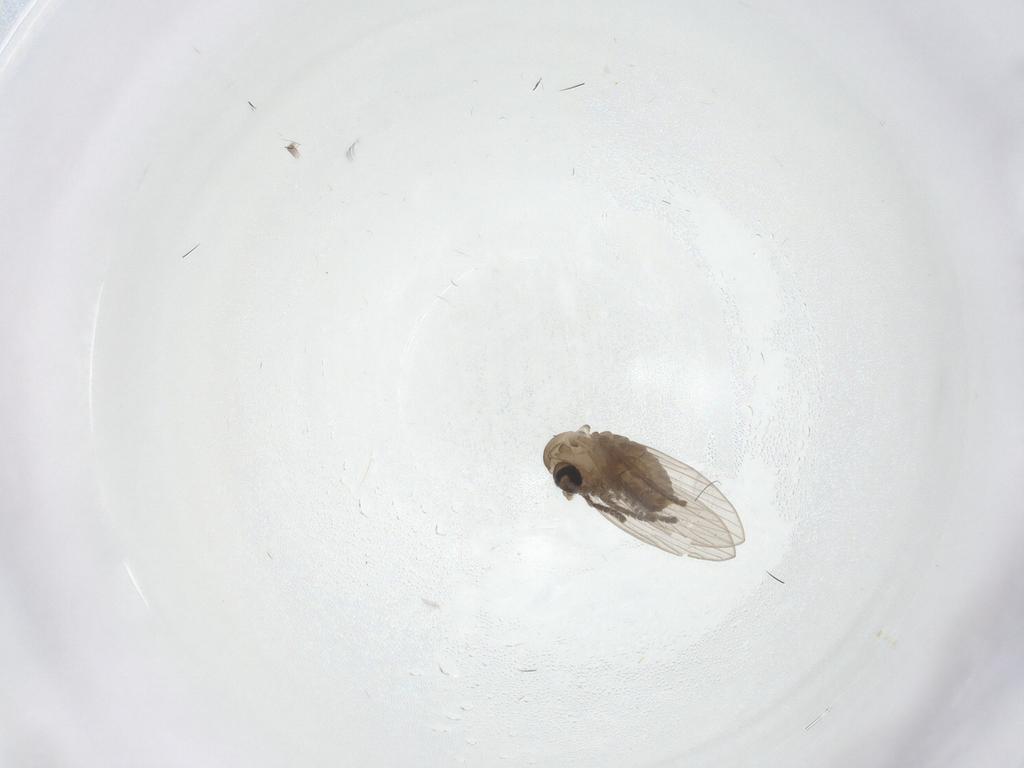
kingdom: Animalia
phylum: Arthropoda
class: Insecta
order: Diptera
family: Psychodidae
